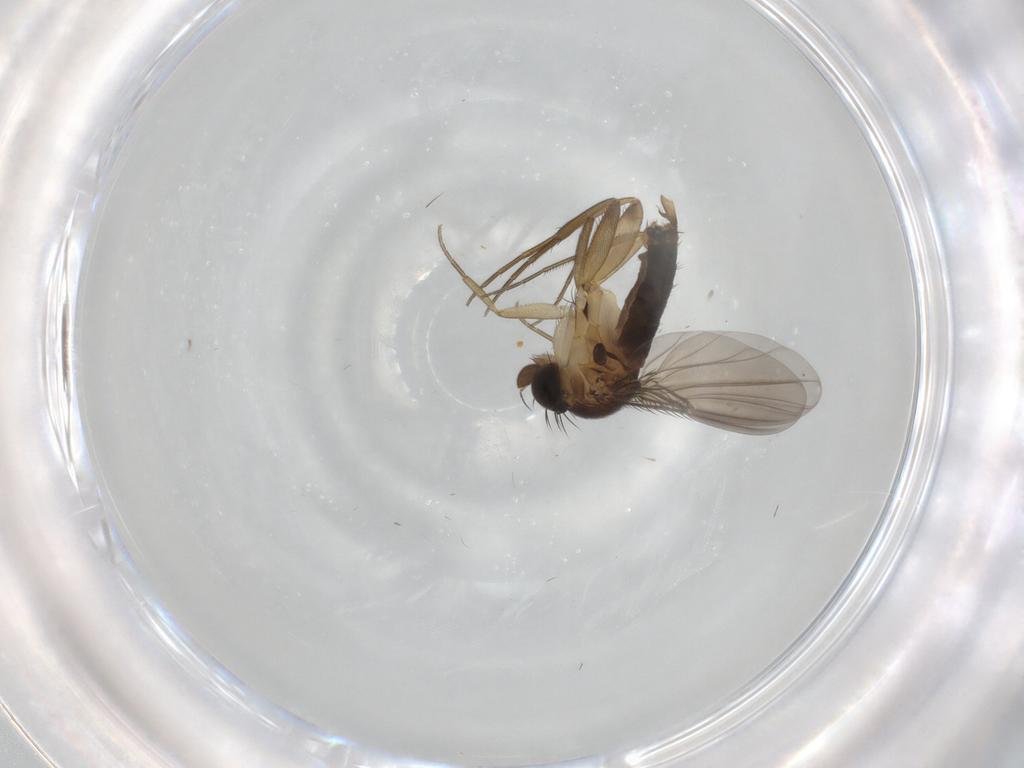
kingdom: Animalia
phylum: Arthropoda
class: Insecta
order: Diptera
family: Phoridae
